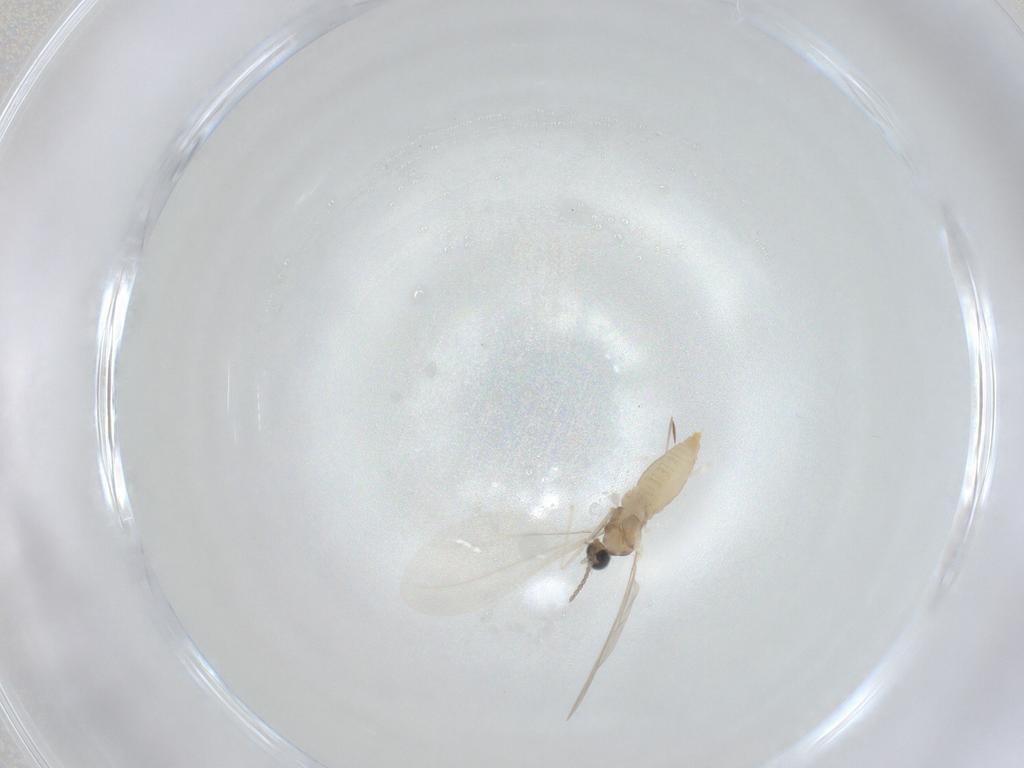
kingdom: Animalia
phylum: Arthropoda
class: Insecta
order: Diptera
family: Cecidomyiidae
